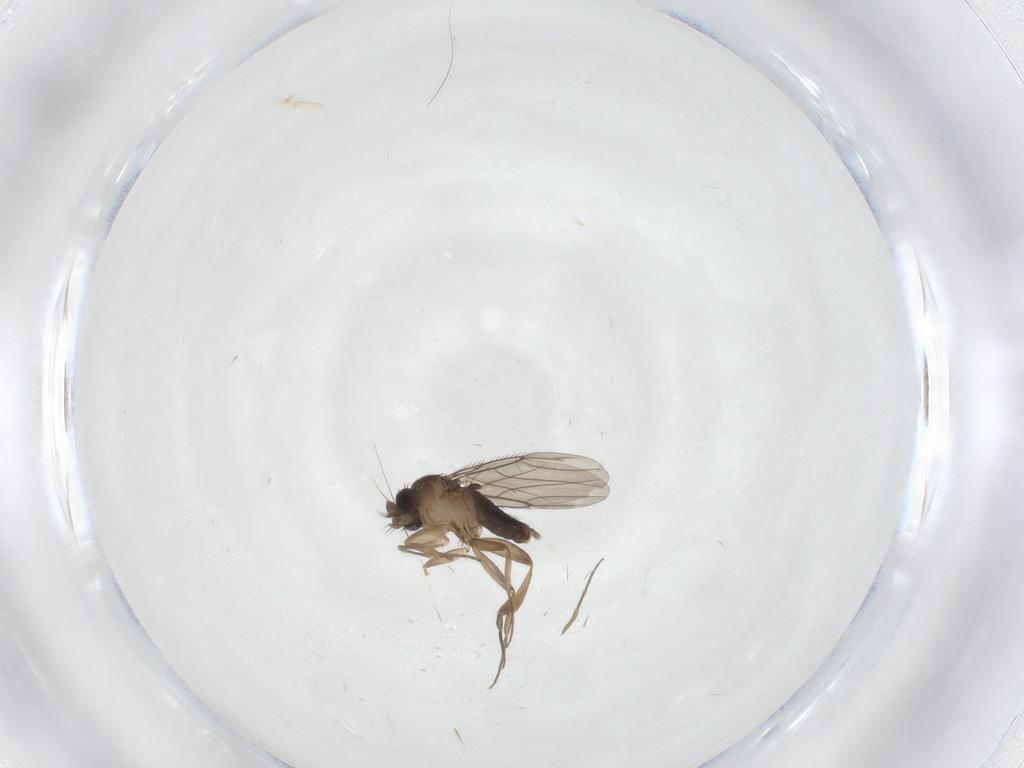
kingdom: Animalia
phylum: Arthropoda
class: Insecta
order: Diptera
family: Phoridae
